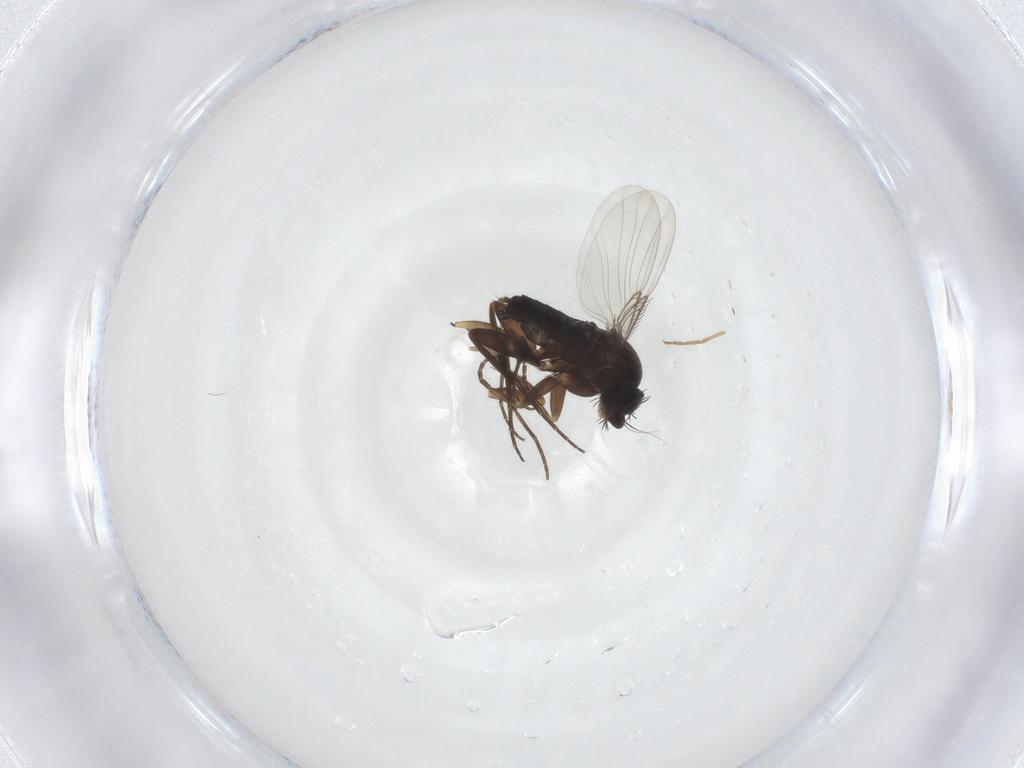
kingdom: Animalia
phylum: Arthropoda
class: Insecta
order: Diptera
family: Phoridae
